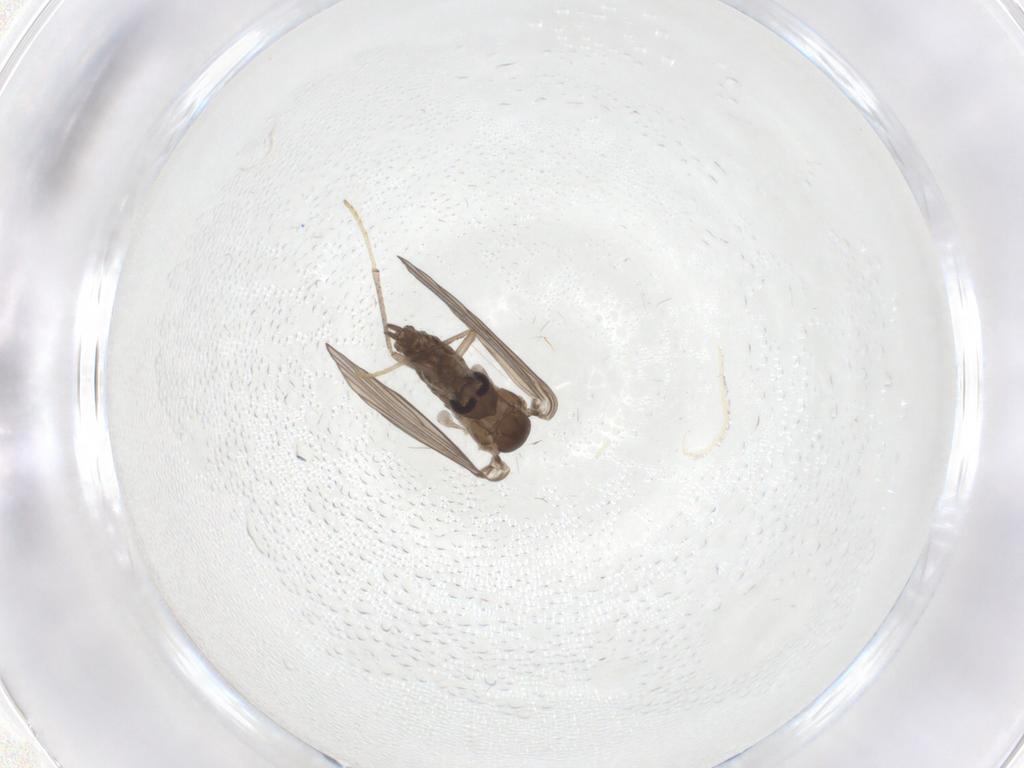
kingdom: Animalia
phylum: Arthropoda
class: Insecta
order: Diptera
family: Psychodidae
